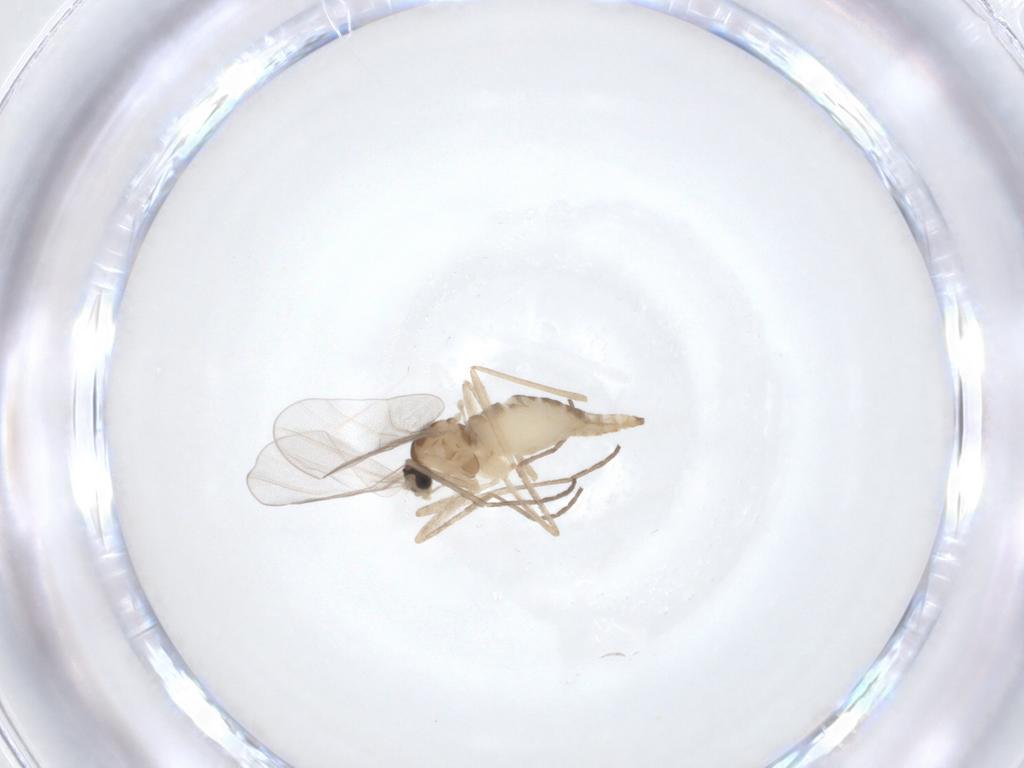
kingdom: Animalia
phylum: Arthropoda
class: Insecta
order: Diptera
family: Cecidomyiidae
